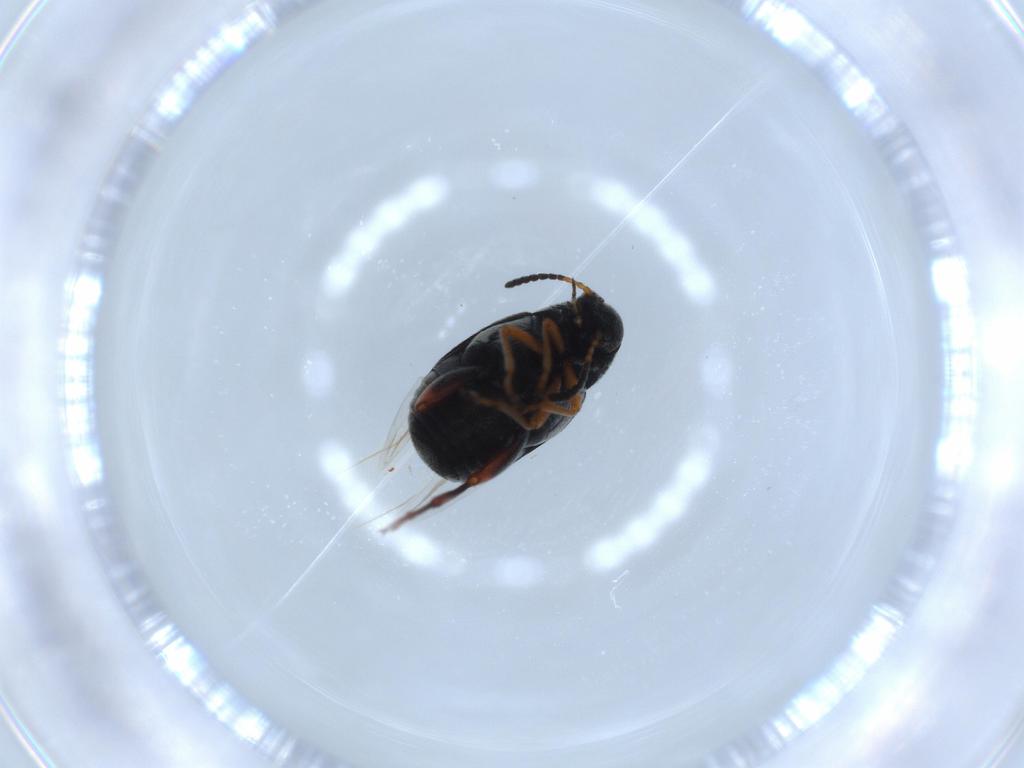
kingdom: Animalia
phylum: Arthropoda
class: Insecta
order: Coleoptera
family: Chrysomelidae
